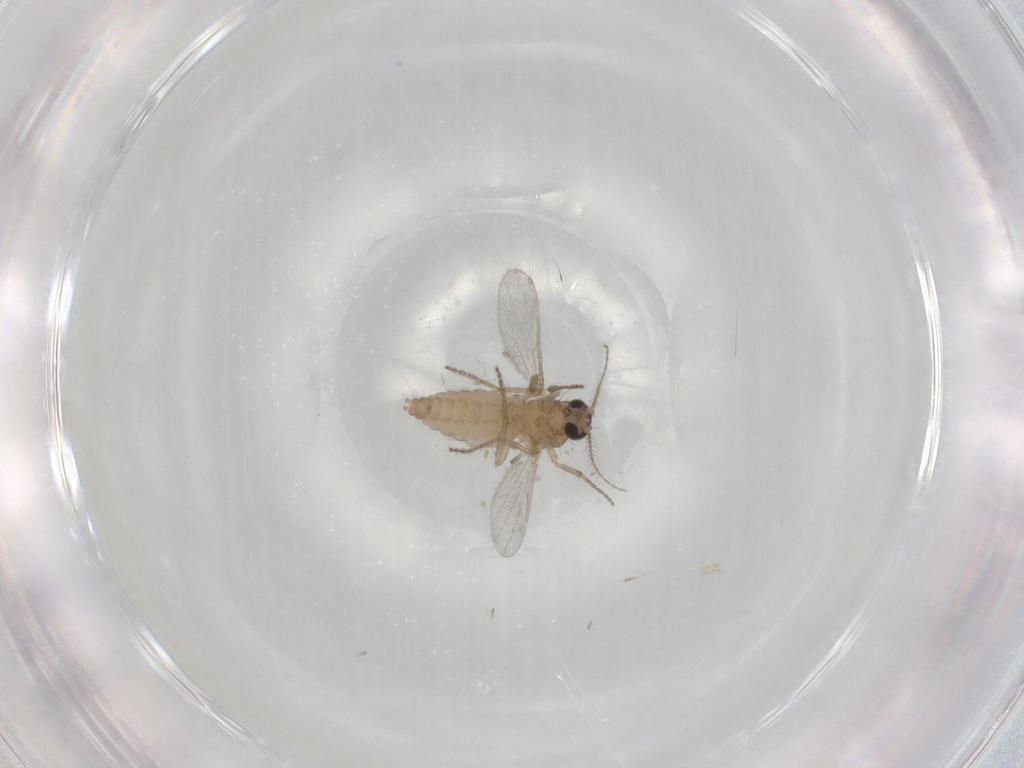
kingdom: Animalia
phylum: Arthropoda
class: Insecta
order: Diptera
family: Ceratopogonidae
